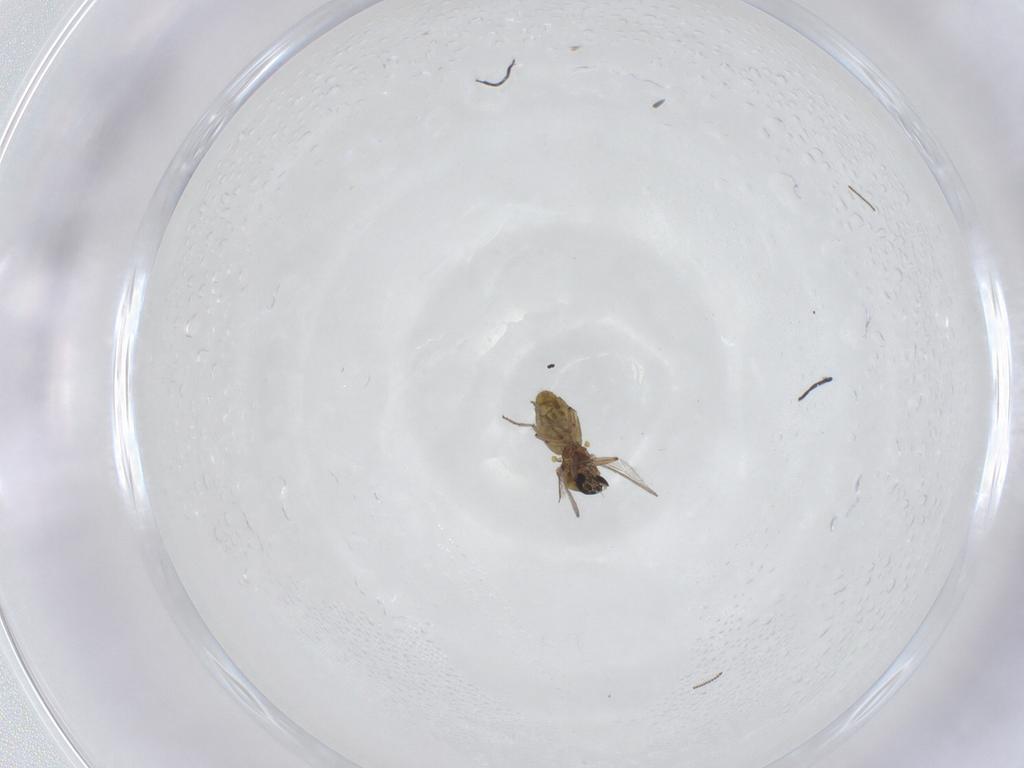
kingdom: Animalia
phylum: Arthropoda
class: Insecta
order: Diptera
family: Ceratopogonidae
